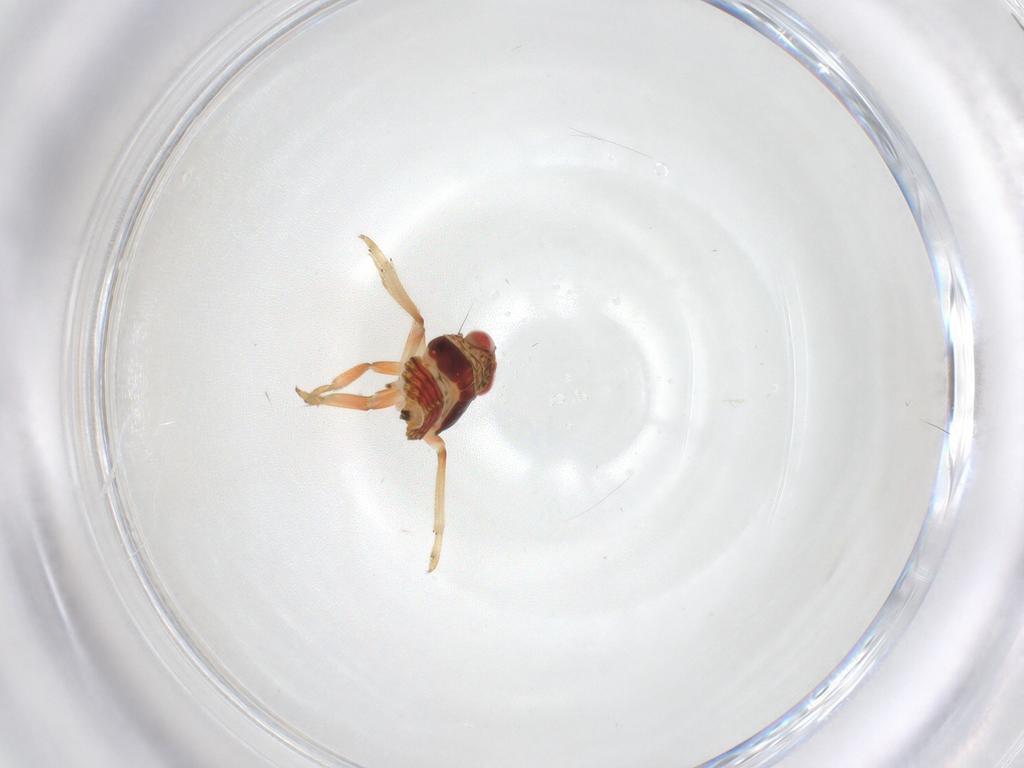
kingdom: Animalia
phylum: Arthropoda
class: Insecta
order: Hemiptera
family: Issidae
